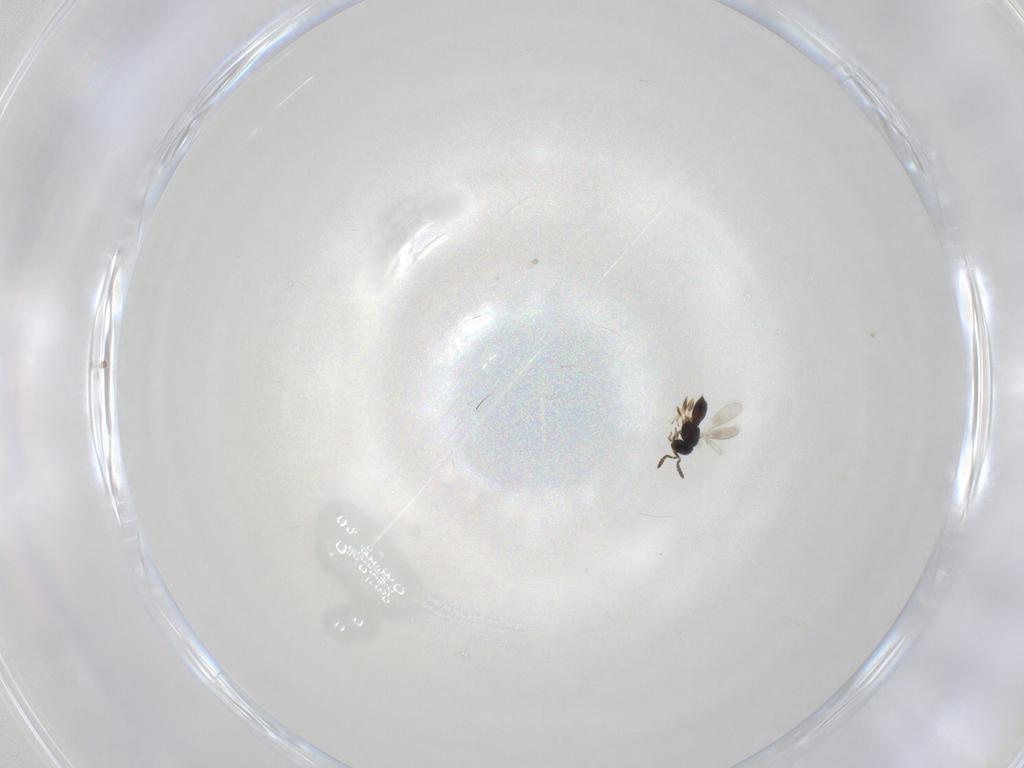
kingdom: Animalia
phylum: Arthropoda
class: Insecta
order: Hymenoptera
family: Scelionidae
